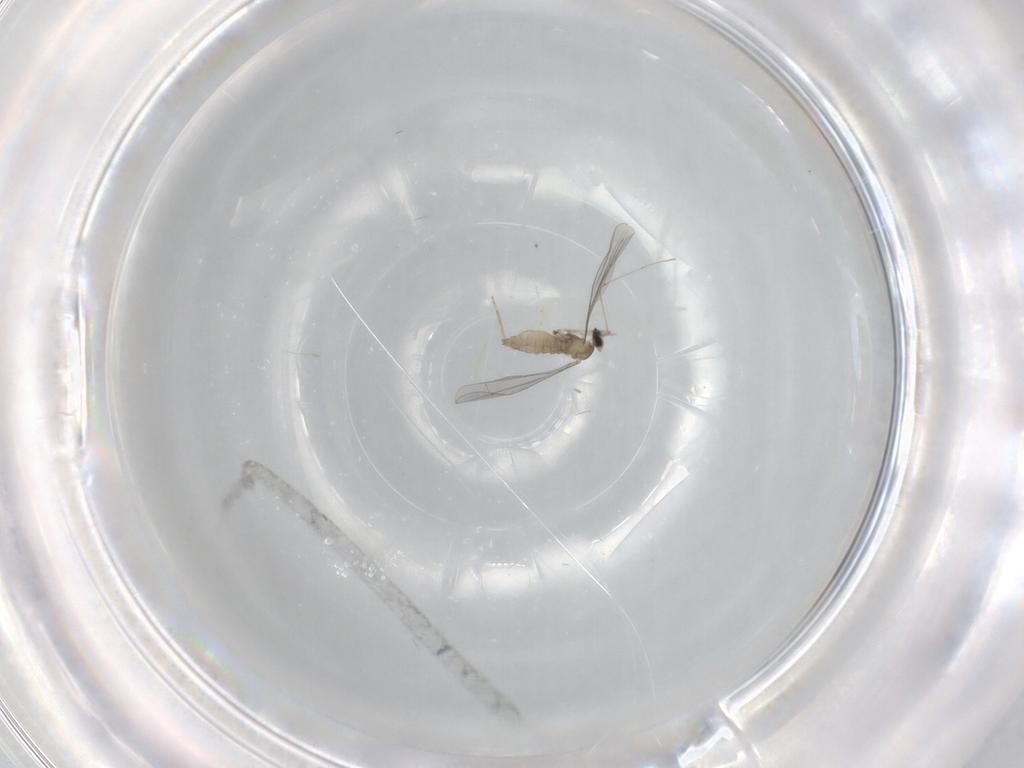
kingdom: Animalia
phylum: Arthropoda
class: Insecta
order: Diptera
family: Cecidomyiidae
